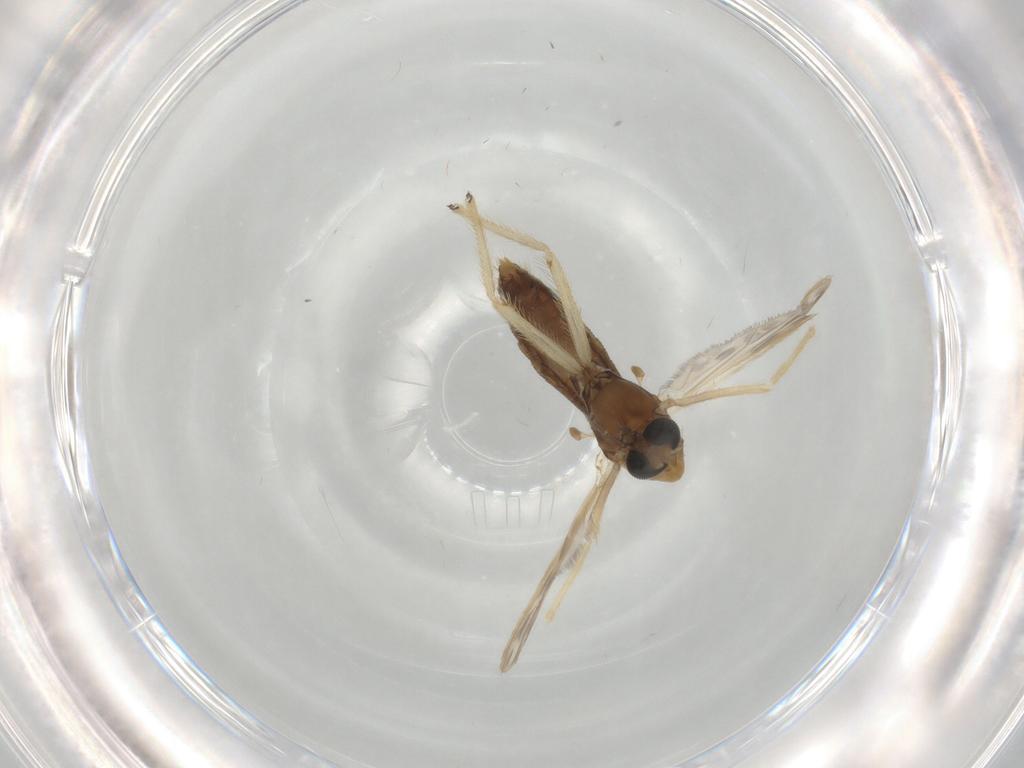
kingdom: Animalia
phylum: Arthropoda
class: Insecta
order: Diptera
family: Chironomidae
